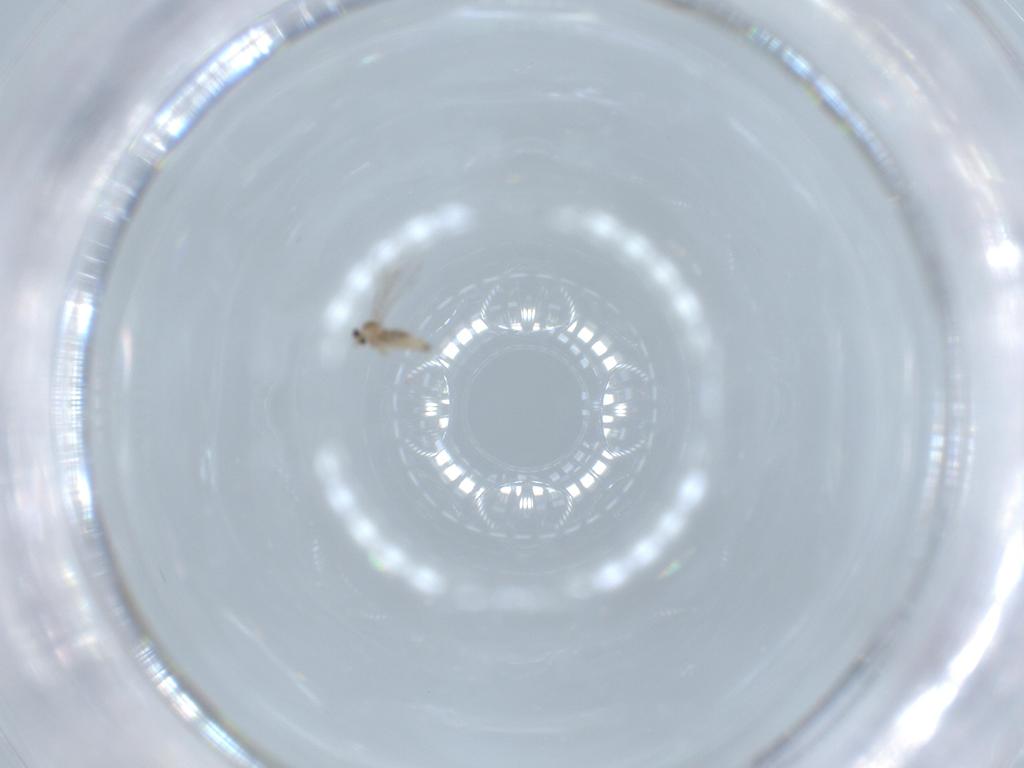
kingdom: Animalia
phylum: Arthropoda
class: Insecta
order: Diptera
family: Cecidomyiidae
